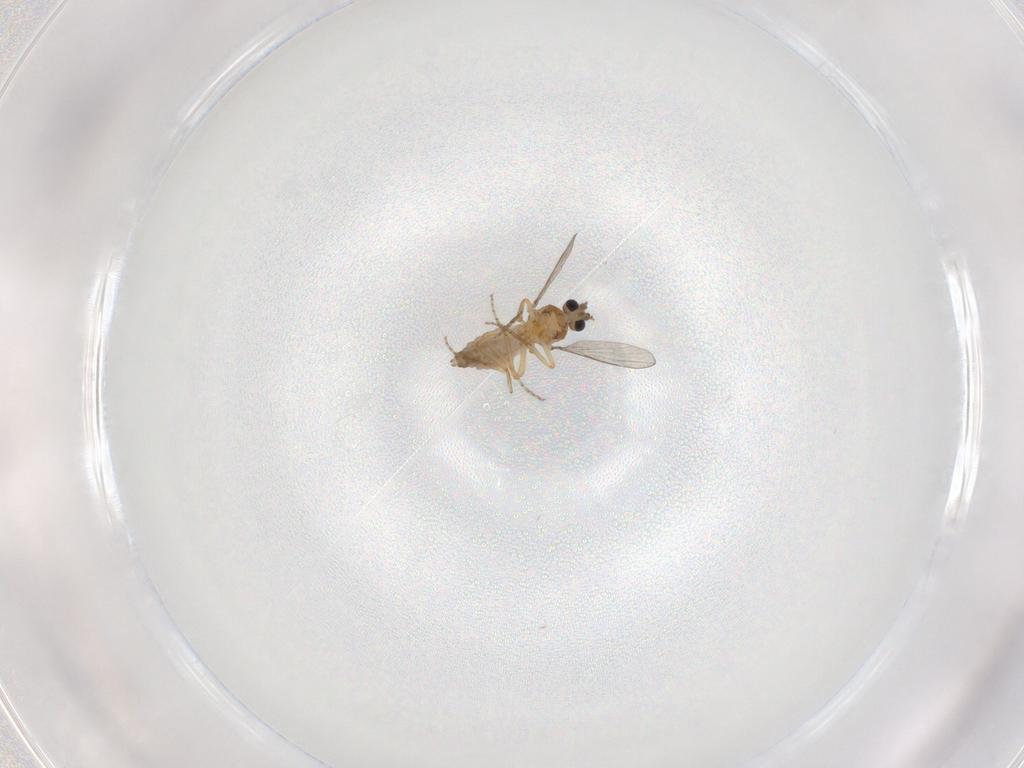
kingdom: Animalia
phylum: Arthropoda
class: Insecta
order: Diptera
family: Ceratopogonidae
